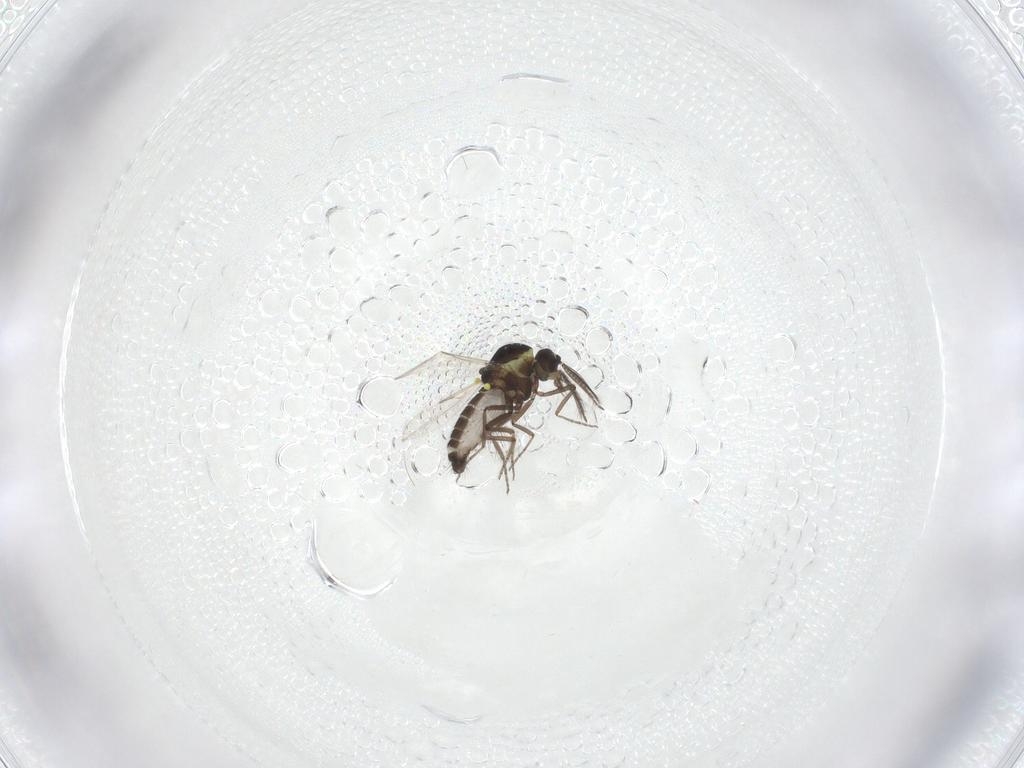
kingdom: Animalia
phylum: Arthropoda
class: Insecta
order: Diptera
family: Ceratopogonidae
